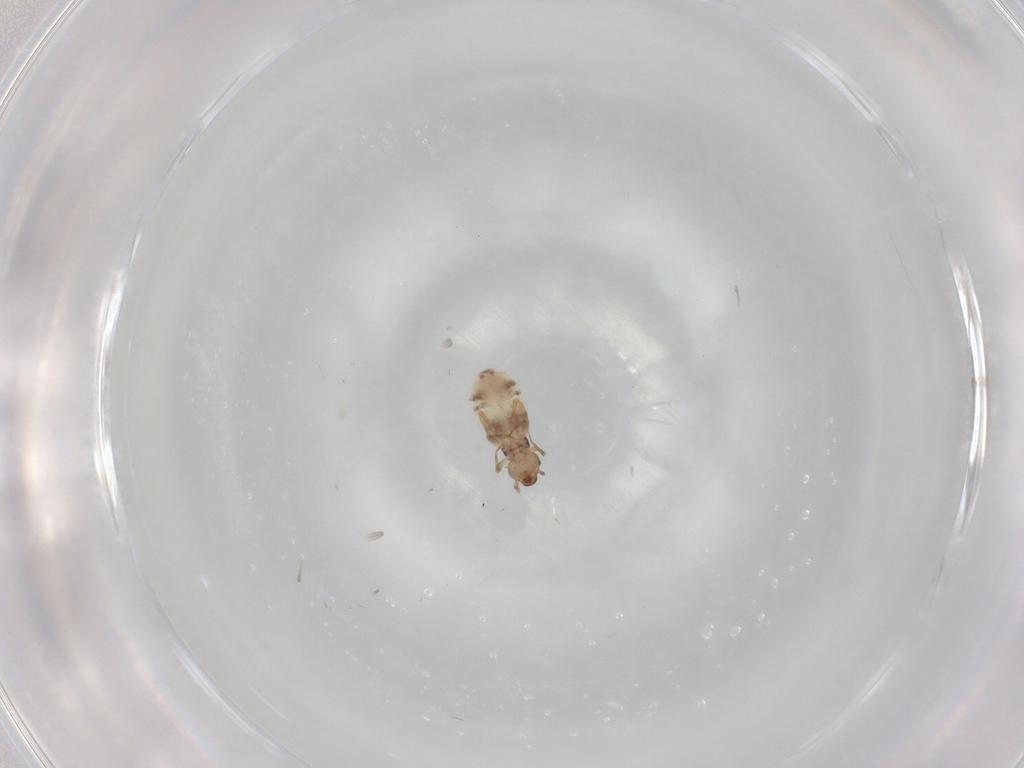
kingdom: Animalia
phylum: Arthropoda
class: Insecta
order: Psocodea
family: Liposcelididae
